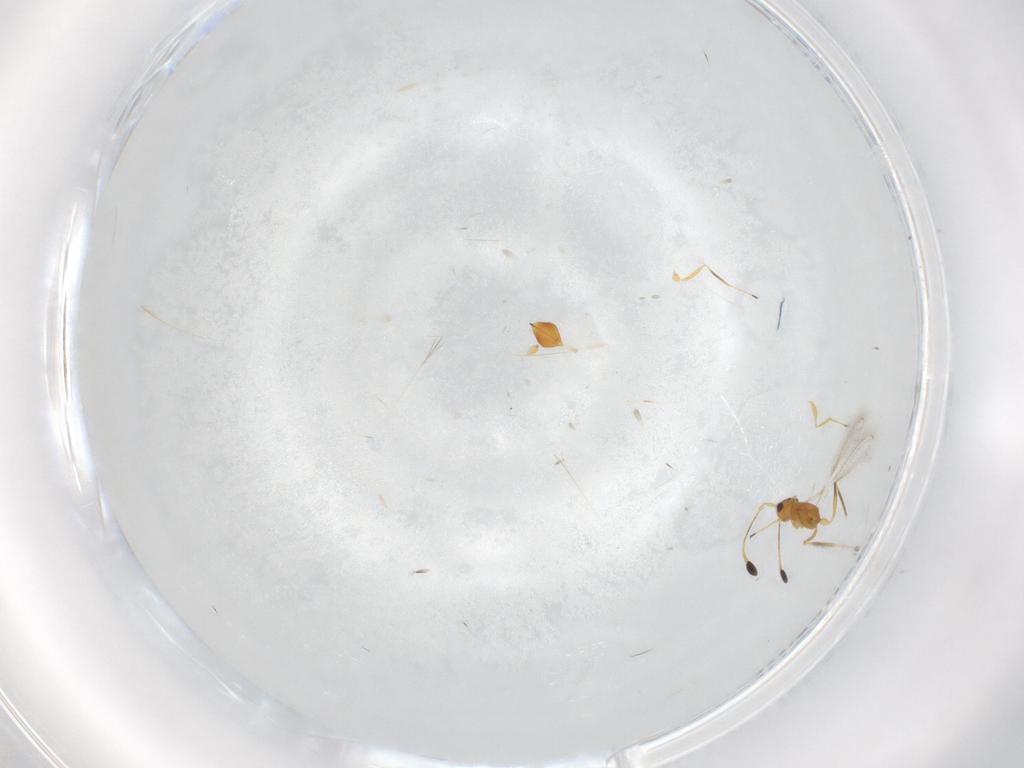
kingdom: Animalia
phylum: Arthropoda
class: Insecta
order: Hymenoptera
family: Mymaridae
